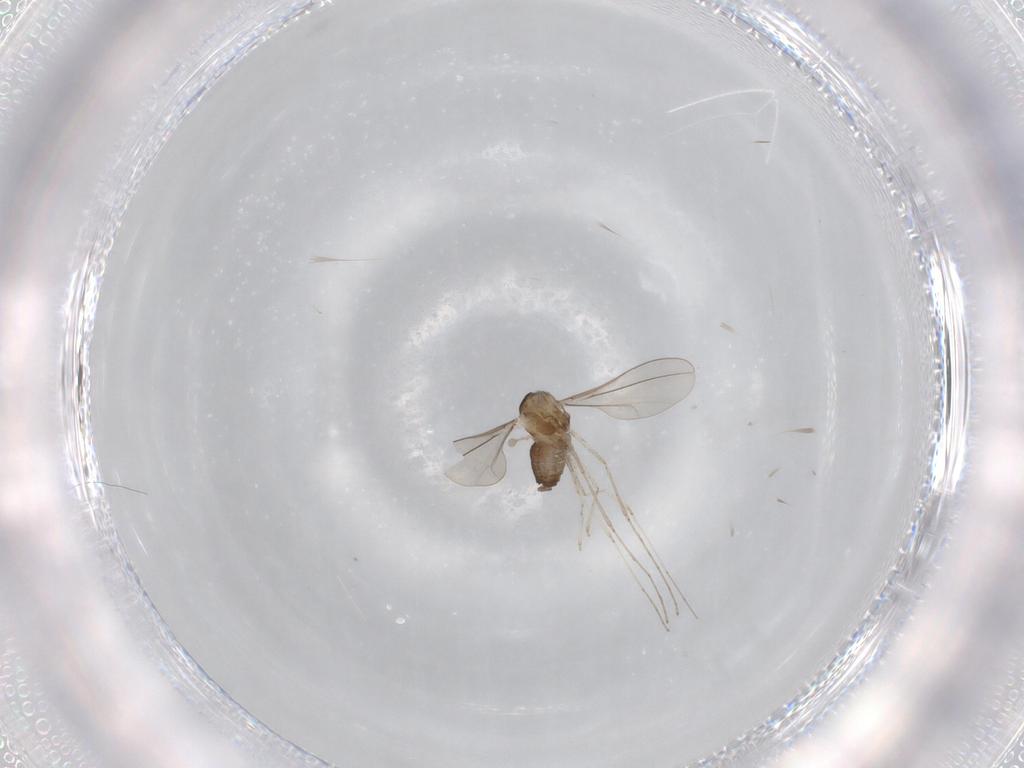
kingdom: Animalia
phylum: Arthropoda
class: Insecta
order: Diptera
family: Cecidomyiidae
